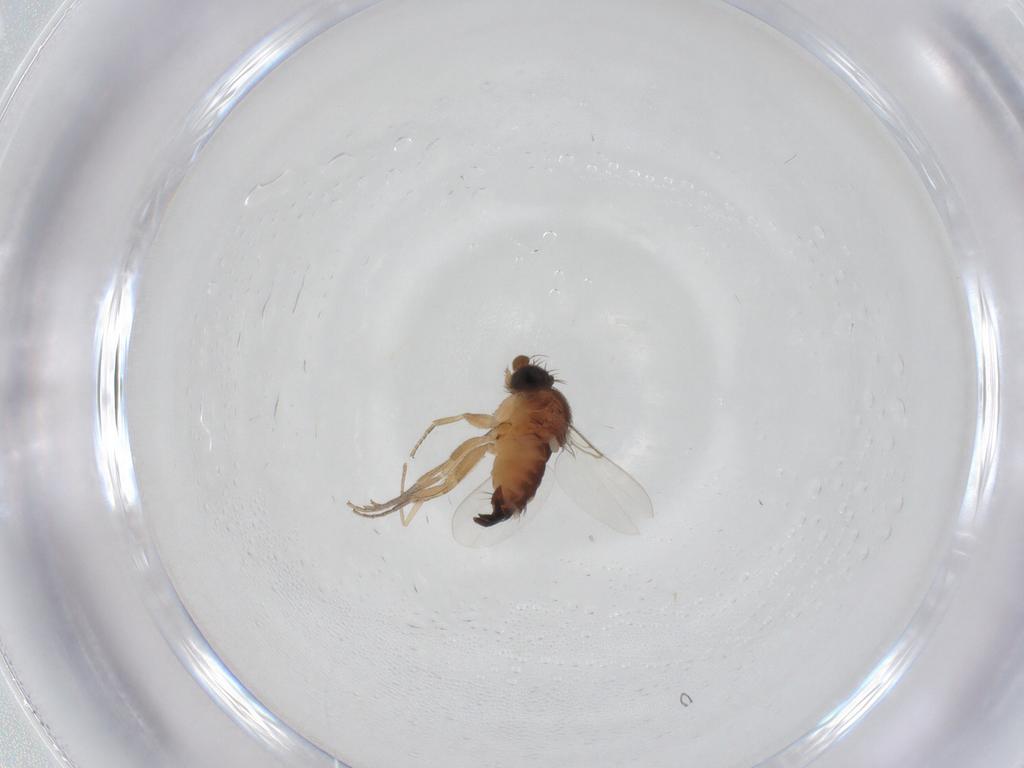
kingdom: Animalia
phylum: Arthropoda
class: Insecta
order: Diptera
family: Phoridae
